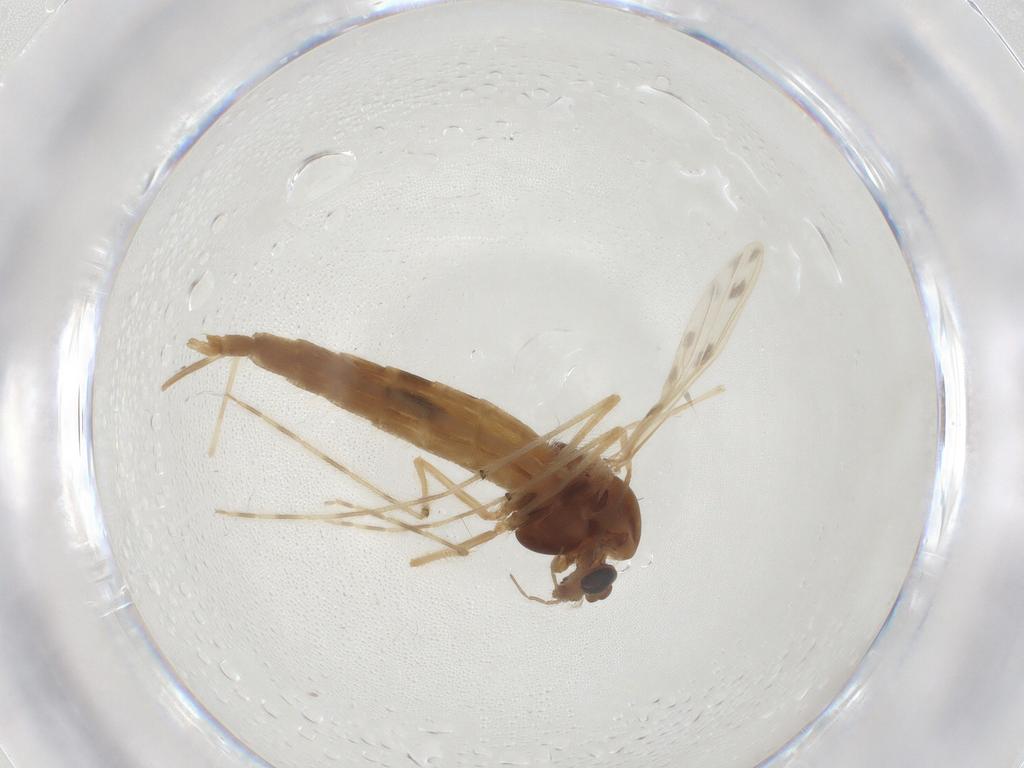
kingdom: Animalia
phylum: Arthropoda
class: Insecta
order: Diptera
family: Chironomidae
